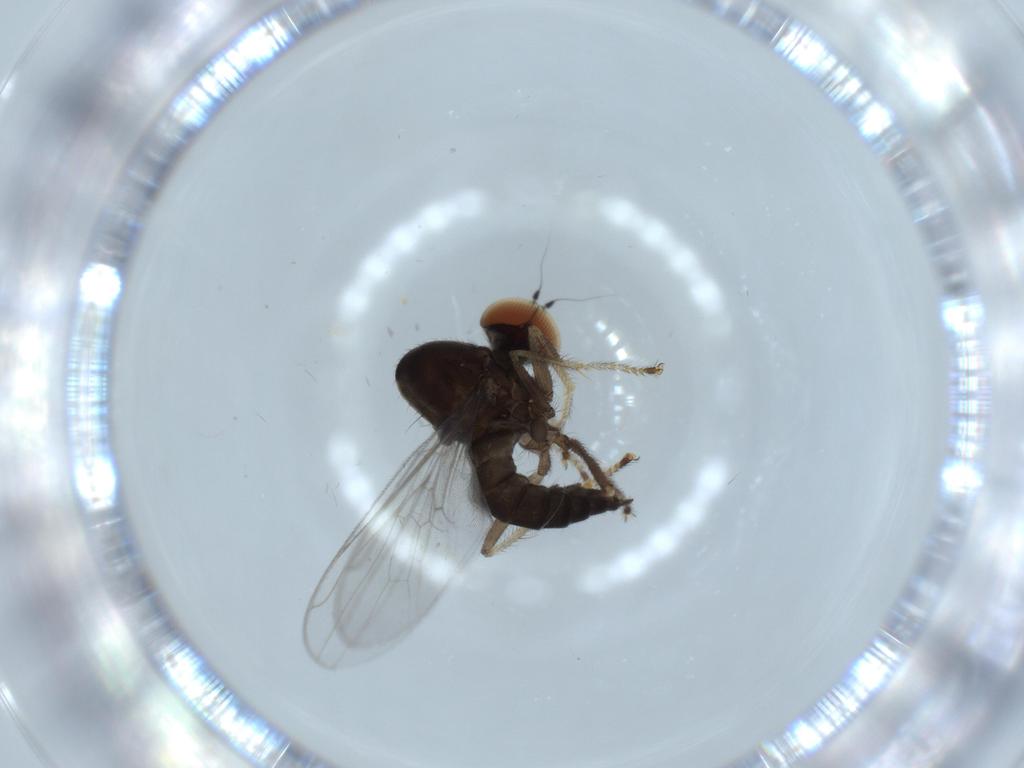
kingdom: Animalia
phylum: Arthropoda
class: Insecta
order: Diptera
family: Hybotidae
